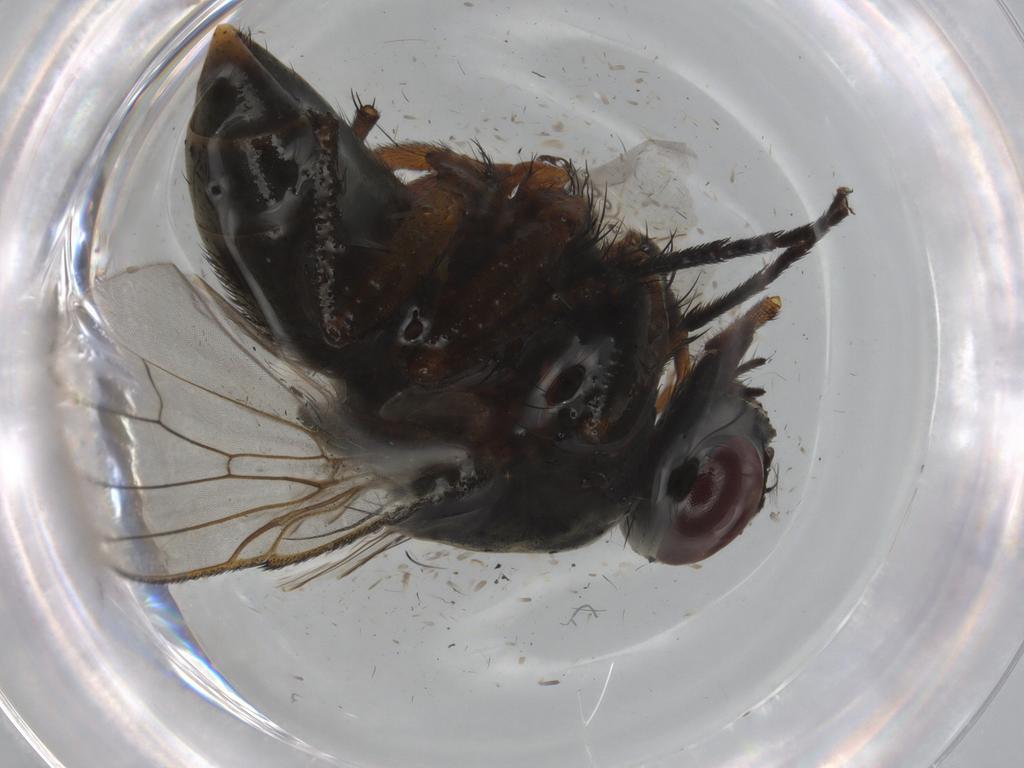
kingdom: Animalia
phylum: Arthropoda
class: Insecta
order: Diptera
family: Muscidae
